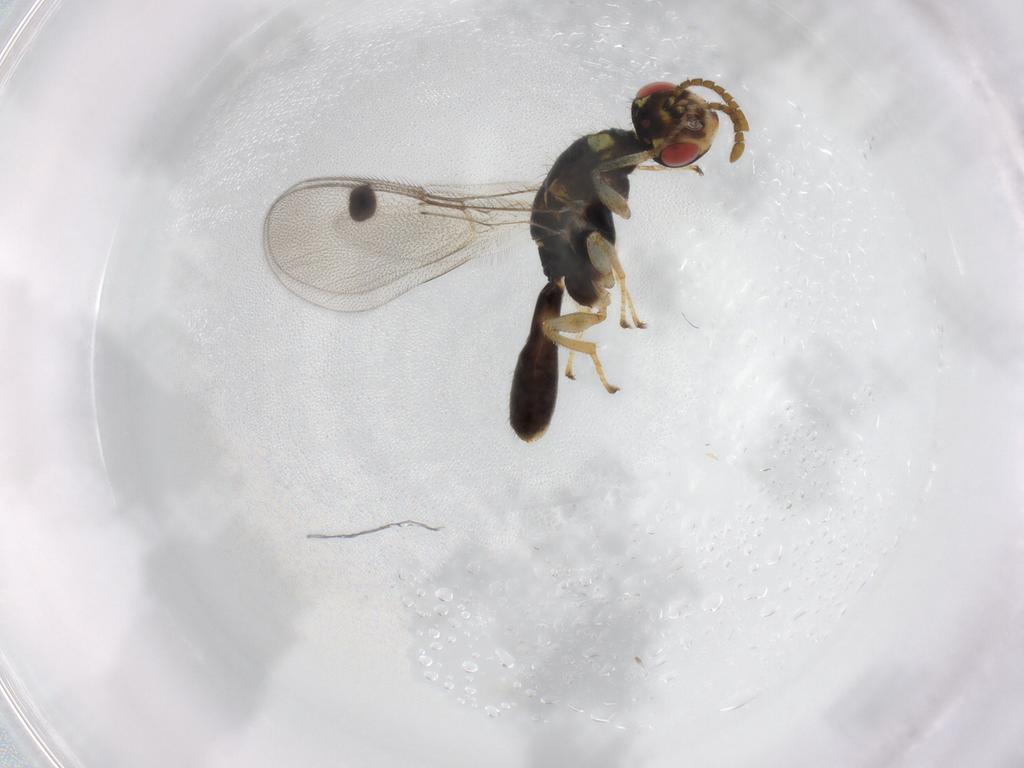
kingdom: Animalia
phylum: Arthropoda
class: Insecta
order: Hymenoptera
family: Megastigmidae
